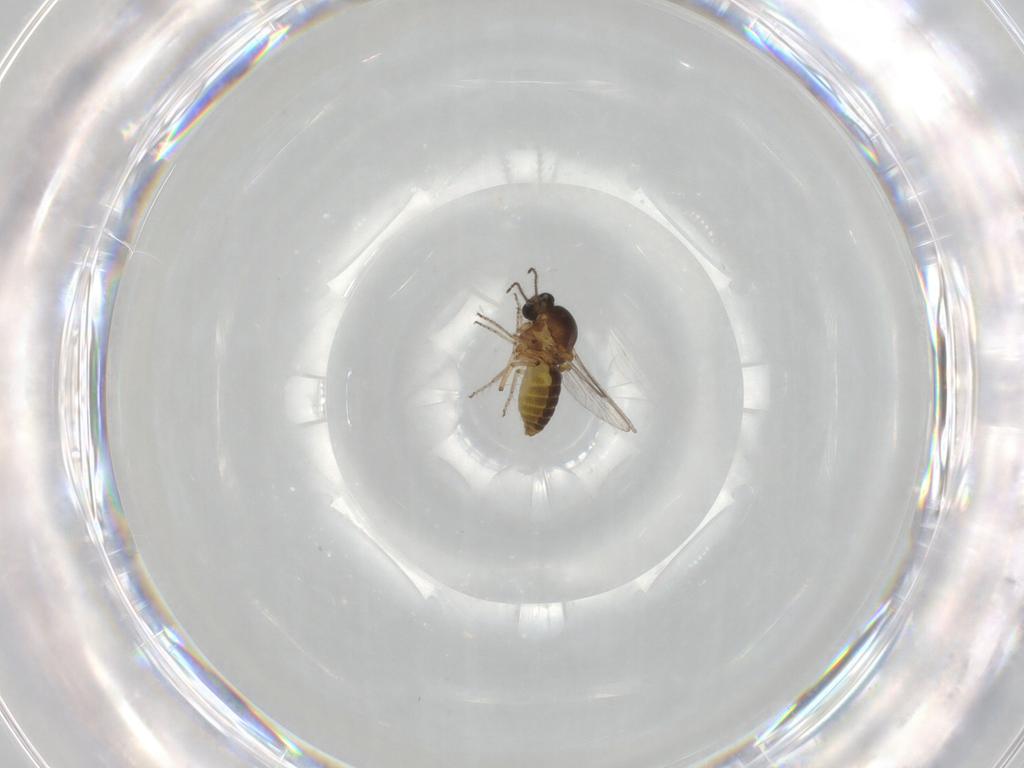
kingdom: Animalia
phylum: Arthropoda
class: Insecta
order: Diptera
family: Ceratopogonidae
